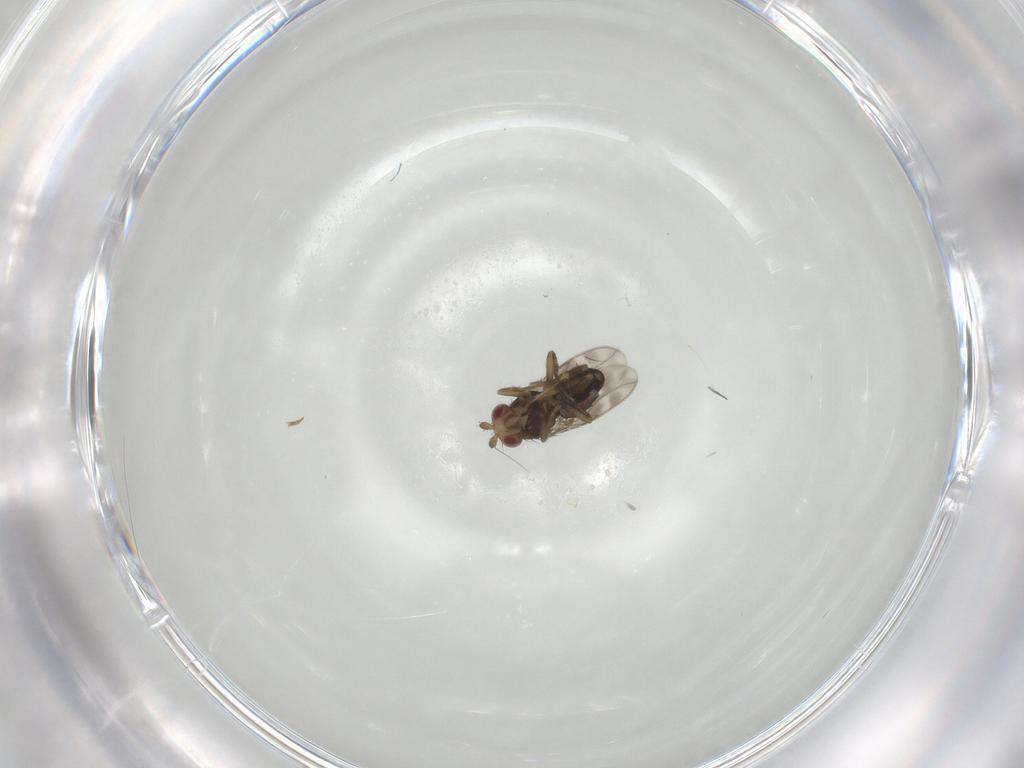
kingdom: Animalia
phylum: Arthropoda
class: Insecta
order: Diptera
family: Sphaeroceridae
